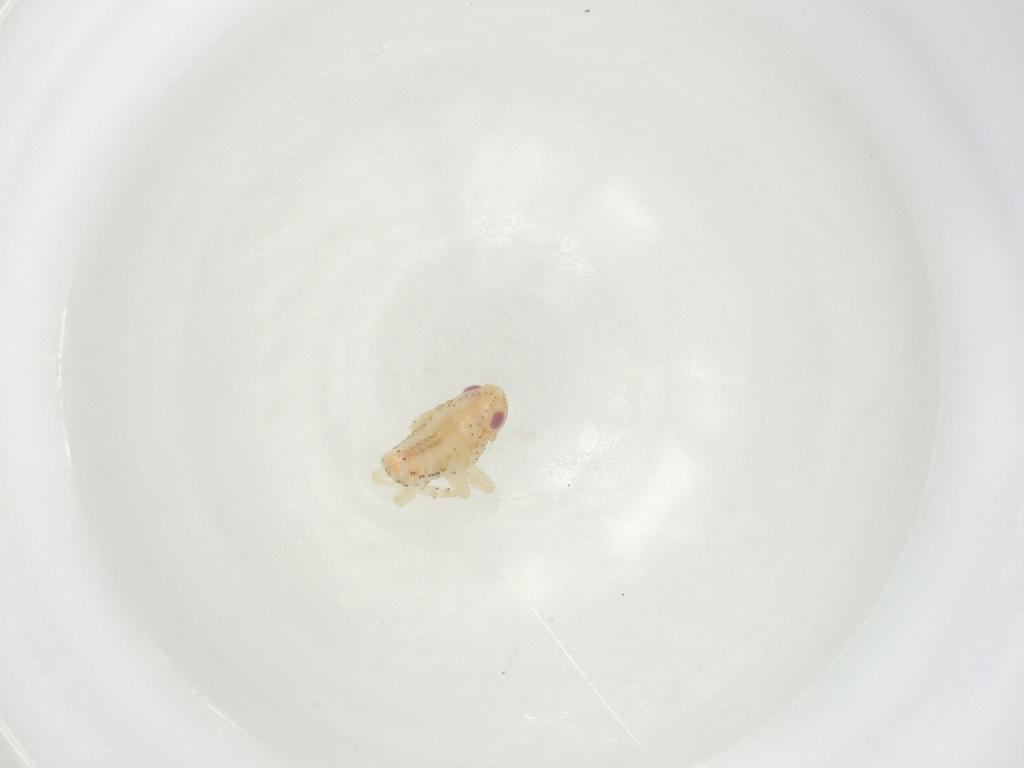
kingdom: Animalia
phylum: Arthropoda
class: Insecta
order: Hemiptera
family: Tropiduchidae
